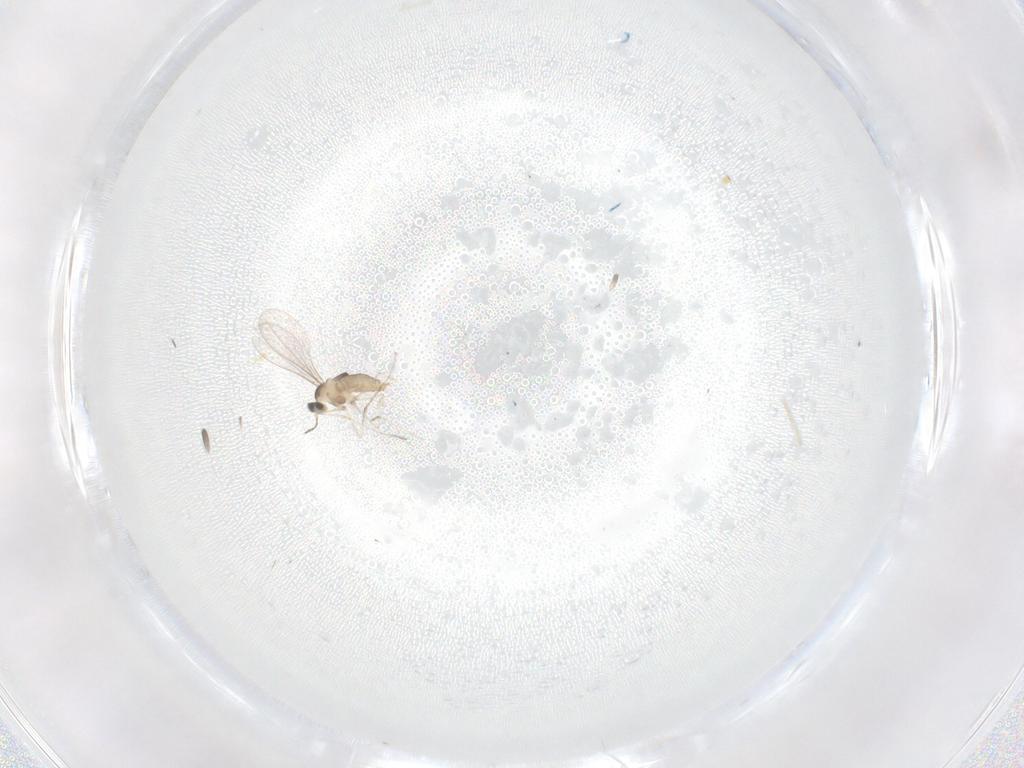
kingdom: Animalia
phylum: Arthropoda
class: Insecta
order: Diptera
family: Cecidomyiidae
